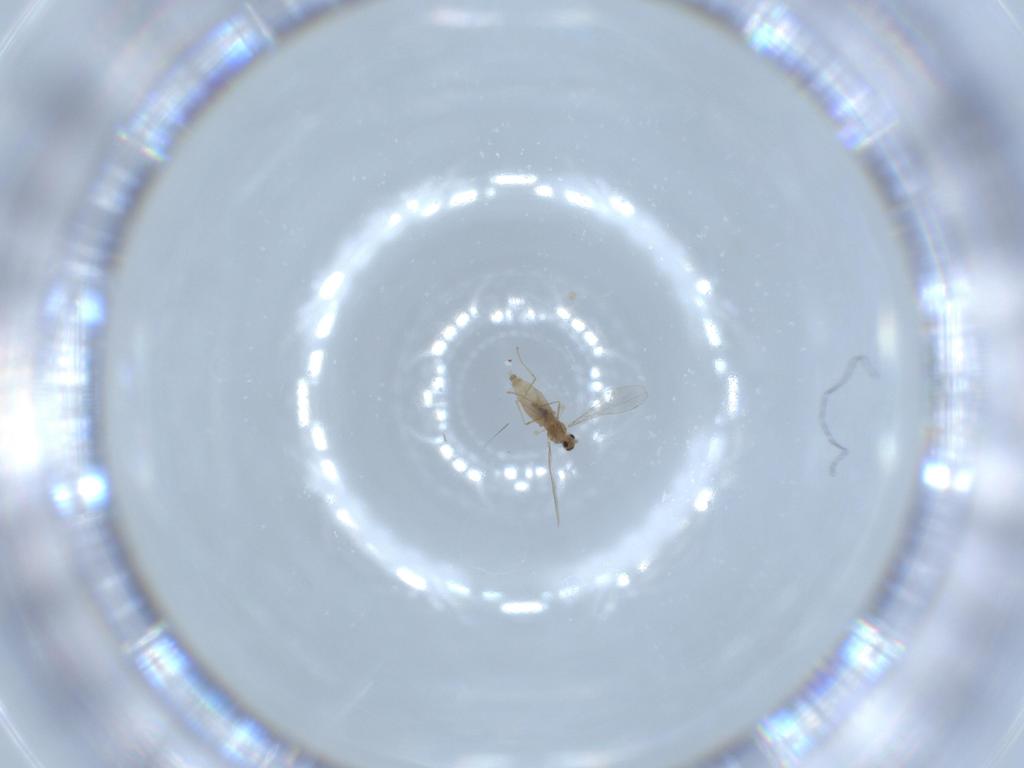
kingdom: Animalia
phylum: Arthropoda
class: Insecta
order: Diptera
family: Cecidomyiidae
